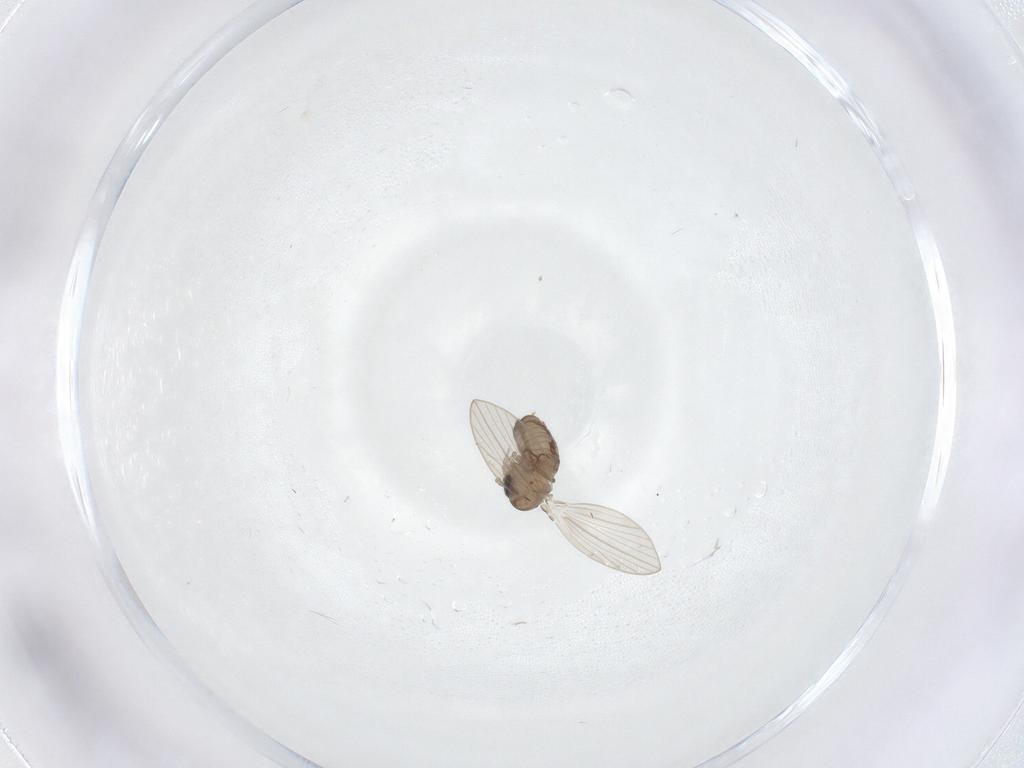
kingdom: Animalia
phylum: Arthropoda
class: Insecta
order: Diptera
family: Psychodidae
